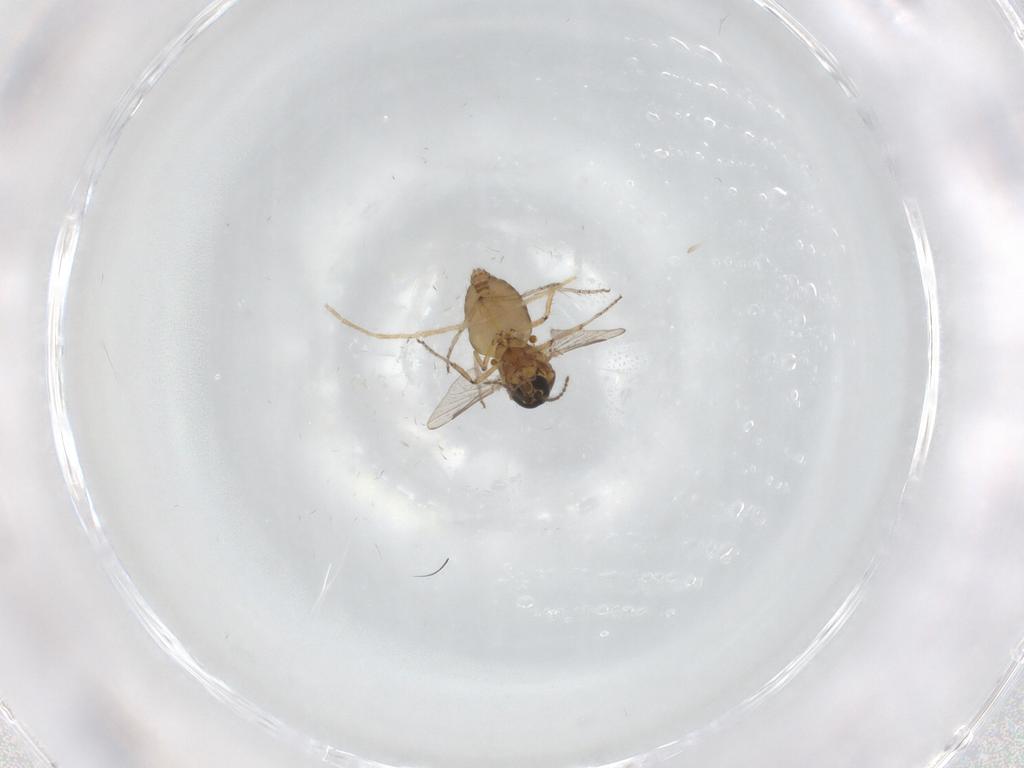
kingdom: Animalia
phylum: Arthropoda
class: Insecta
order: Diptera
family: Ceratopogonidae
